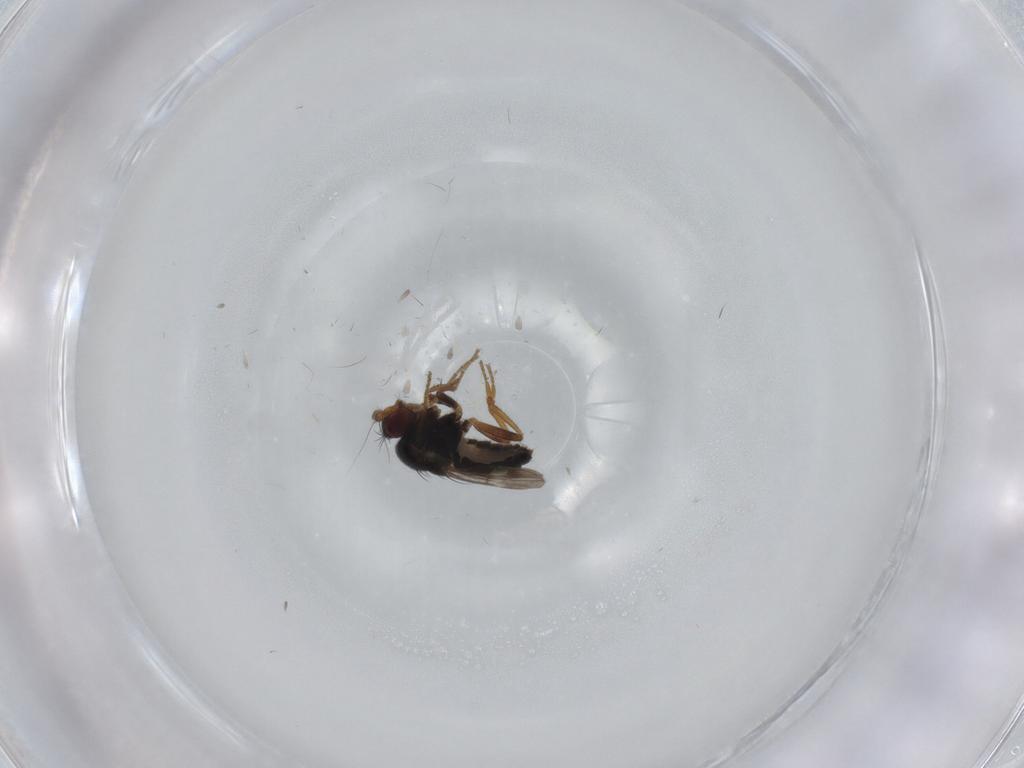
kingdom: Animalia
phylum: Arthropoda
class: Insecta
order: Diptera
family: Sphaeroceridae
